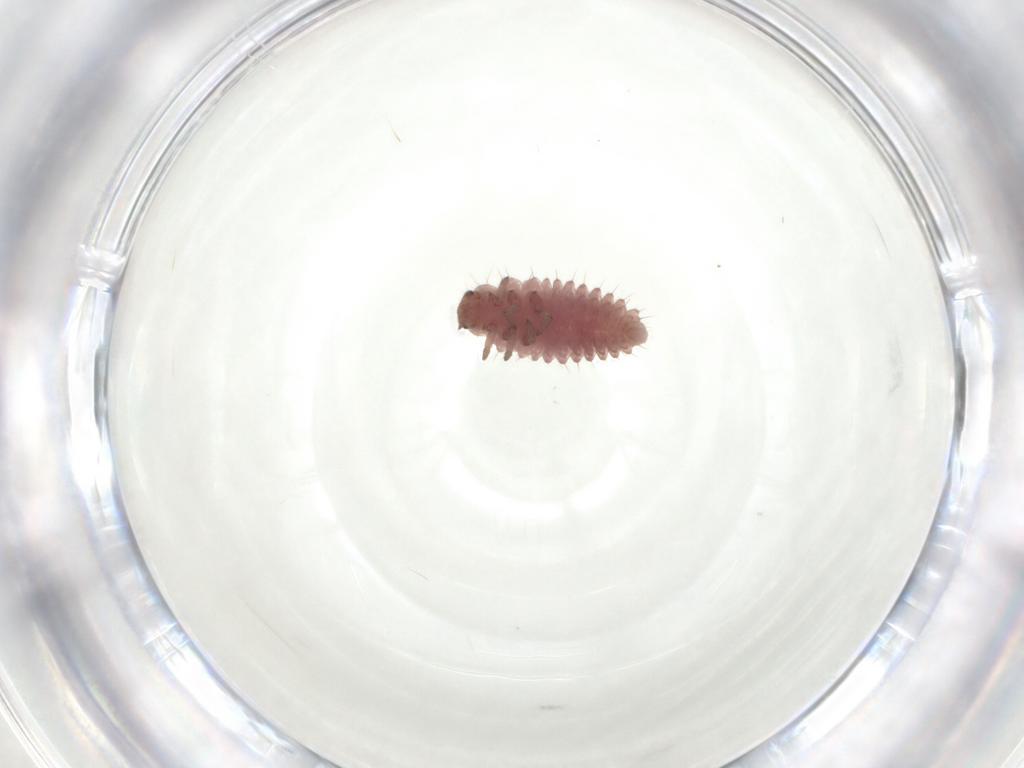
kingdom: Animalia
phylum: Arthropoda
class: Insecta
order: Coleoptera
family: Coccinellidae
